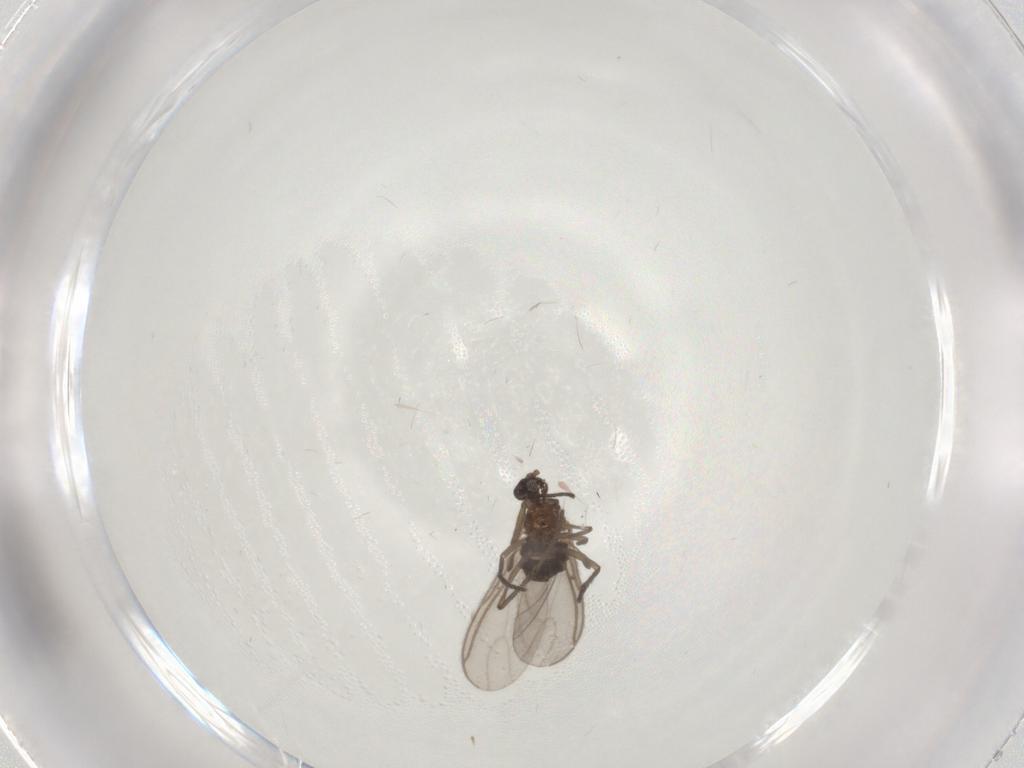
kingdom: Animalia
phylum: Arthropoda
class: Insecta
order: Diptera
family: Sciaridae
